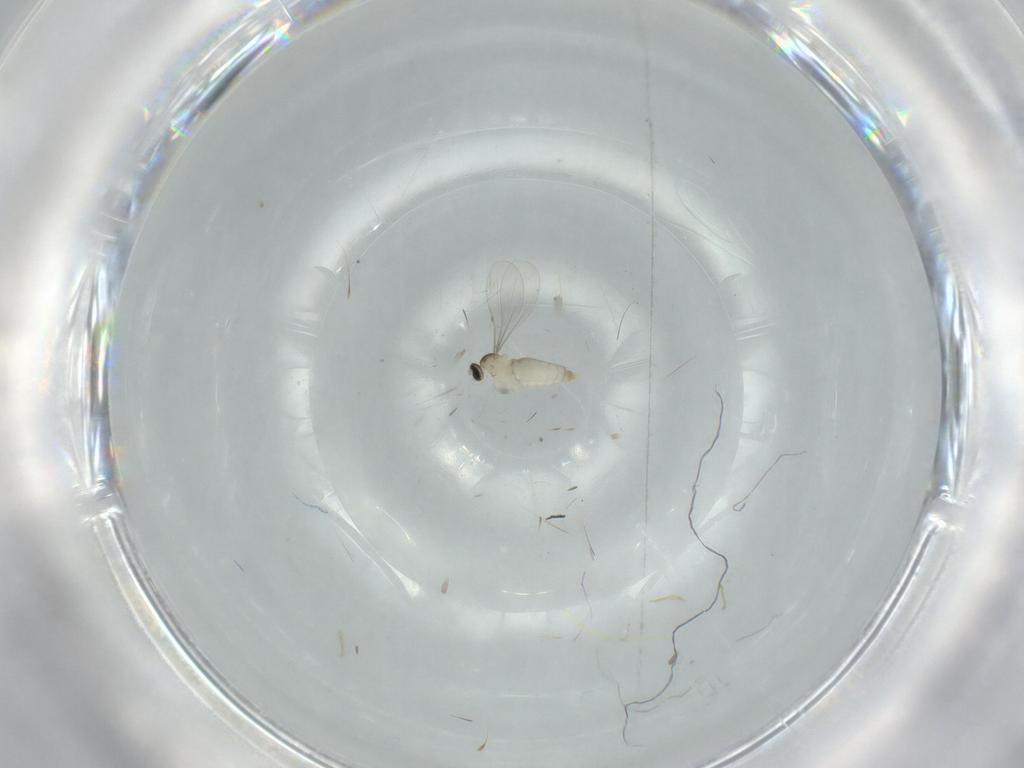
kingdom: Animalia
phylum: Arthropoda
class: Insecta
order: Diptera
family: Cecidomyiidae
